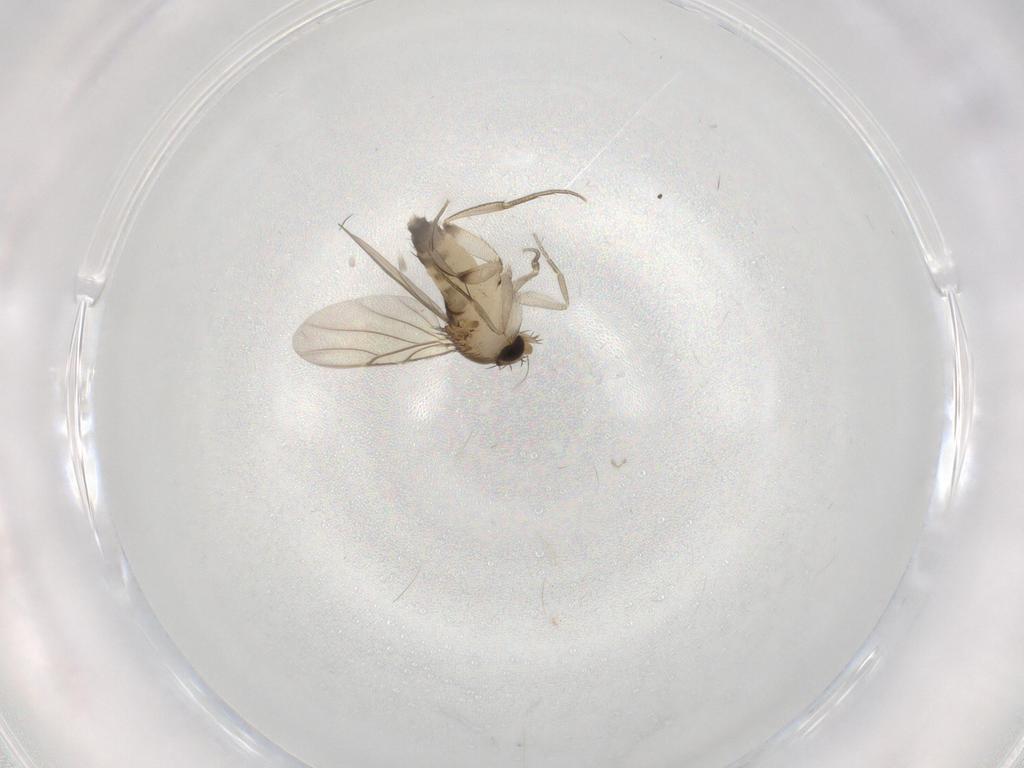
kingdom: Animalia
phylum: Arthropoda
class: Insecta
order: Diptera
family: Phoridae
